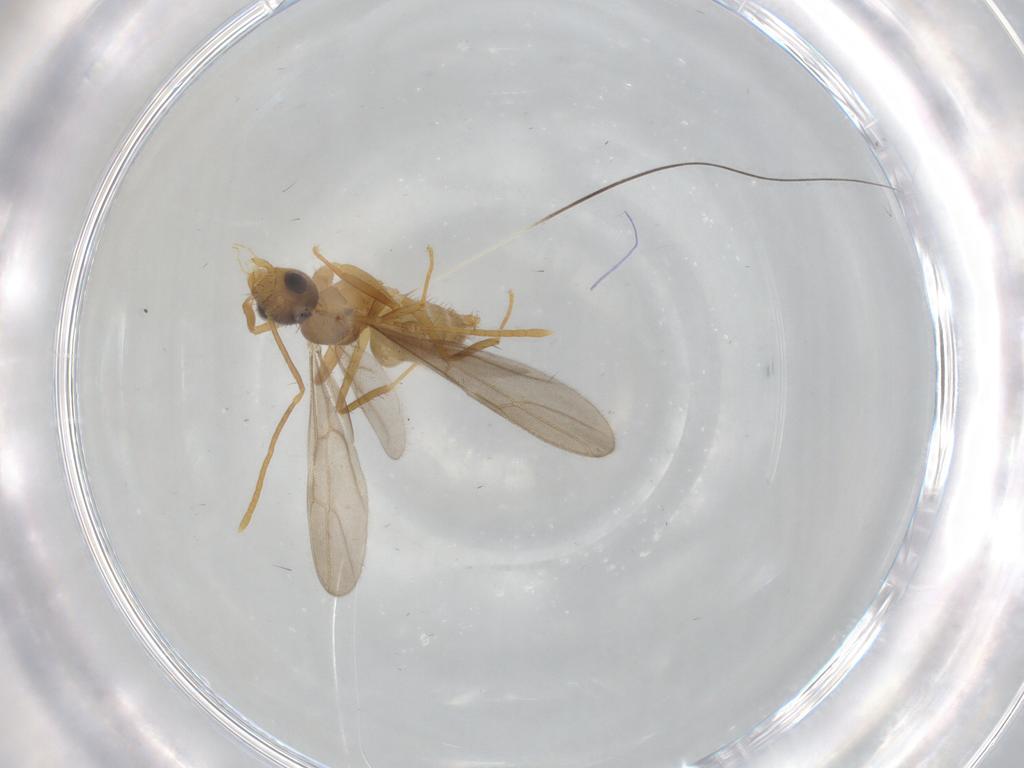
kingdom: Animalia
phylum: Arthropoda
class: Insecta
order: Hymenoptera
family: Formicidae
